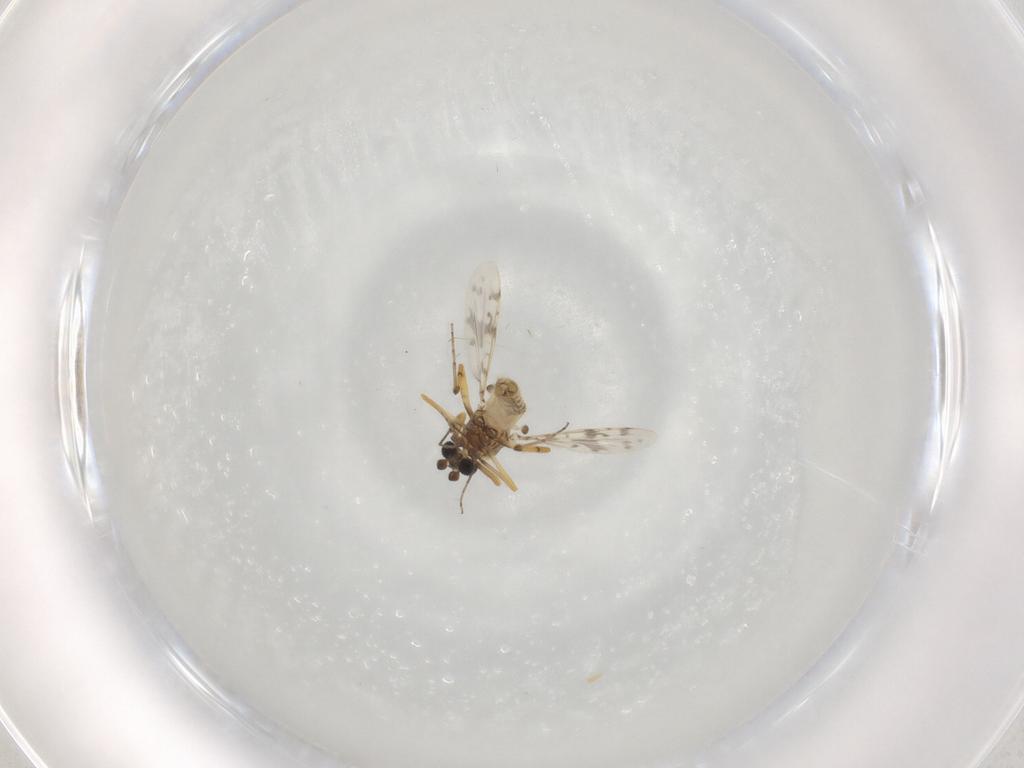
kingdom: Animalia
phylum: Arthropoda
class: Insecta
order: Diptera
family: Ceratopogonidae
